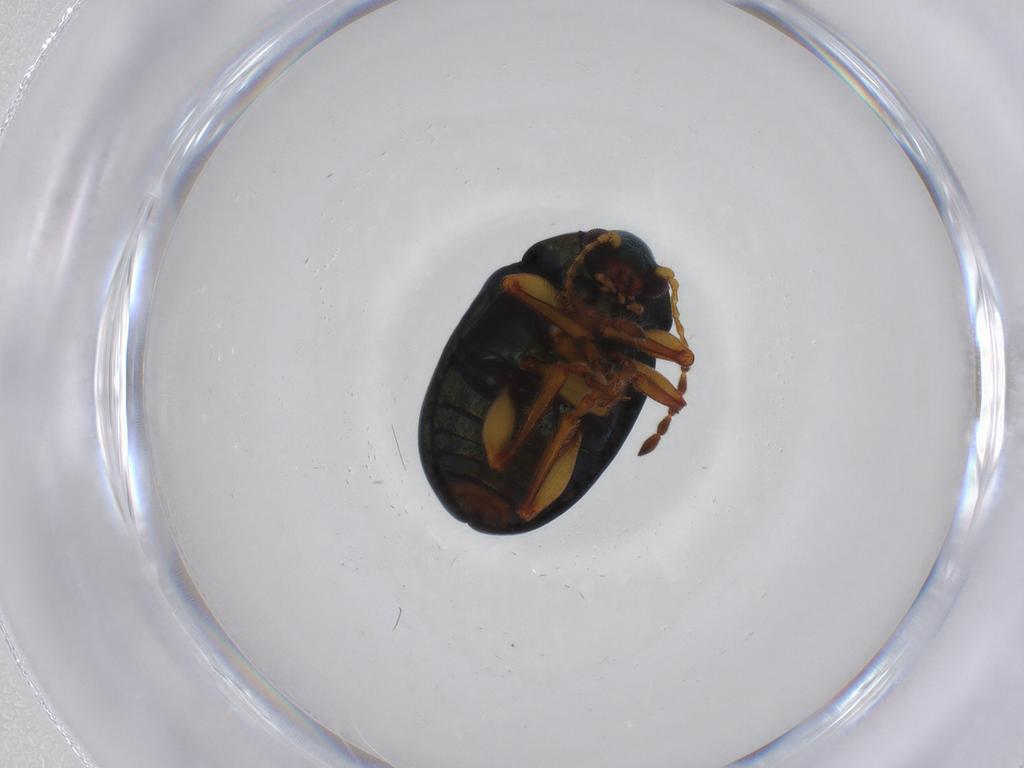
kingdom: Animalia
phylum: Arthropoda
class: Insecta
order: Coleoptera
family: Chrysomelidae
